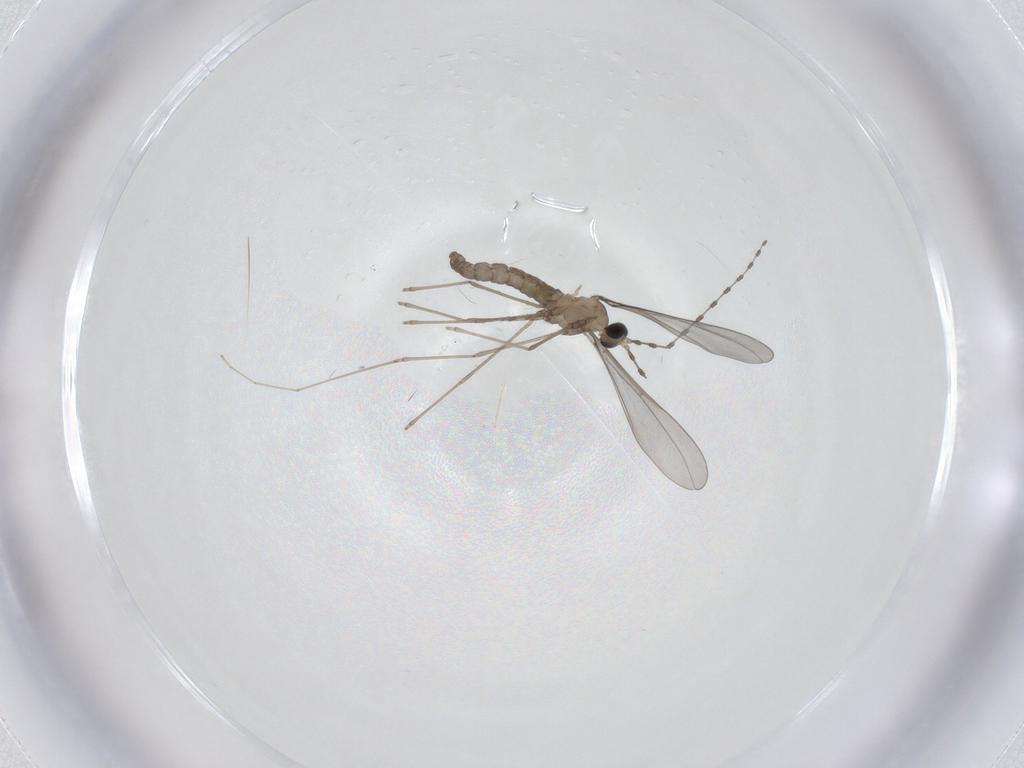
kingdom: Animalia
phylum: Arthropoda
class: Insecta
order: Diptera
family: Cecidomyiidae
